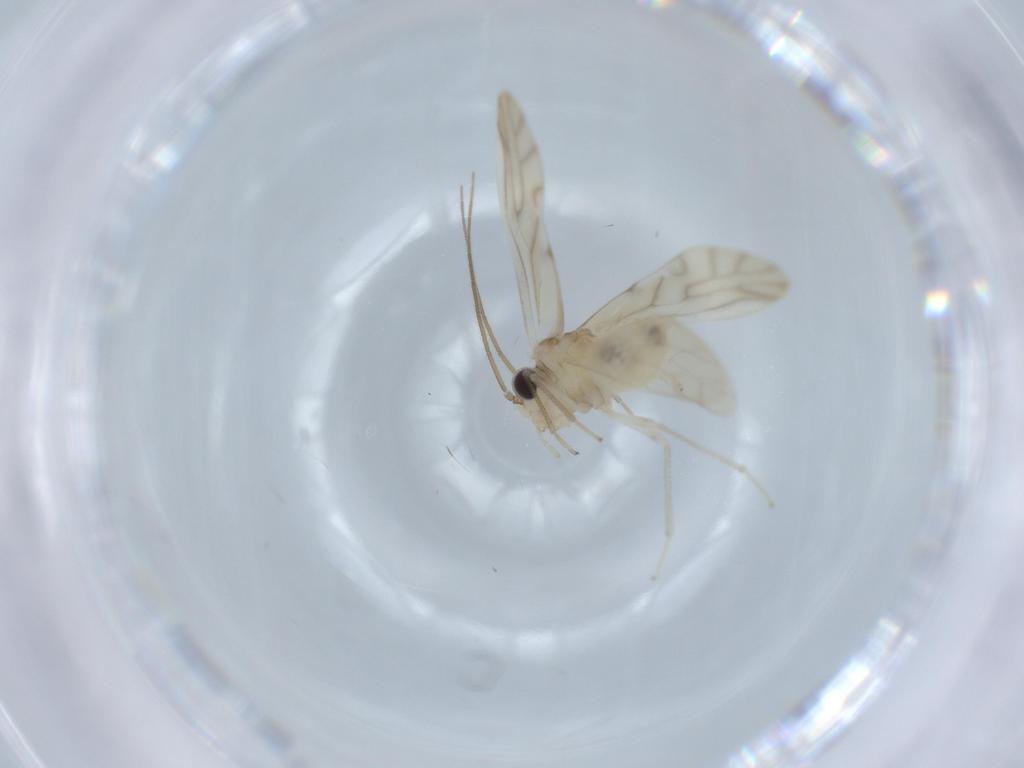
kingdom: Animalia
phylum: Arthropoda
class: Insecta
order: Psocodea
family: Caeciliusidae
